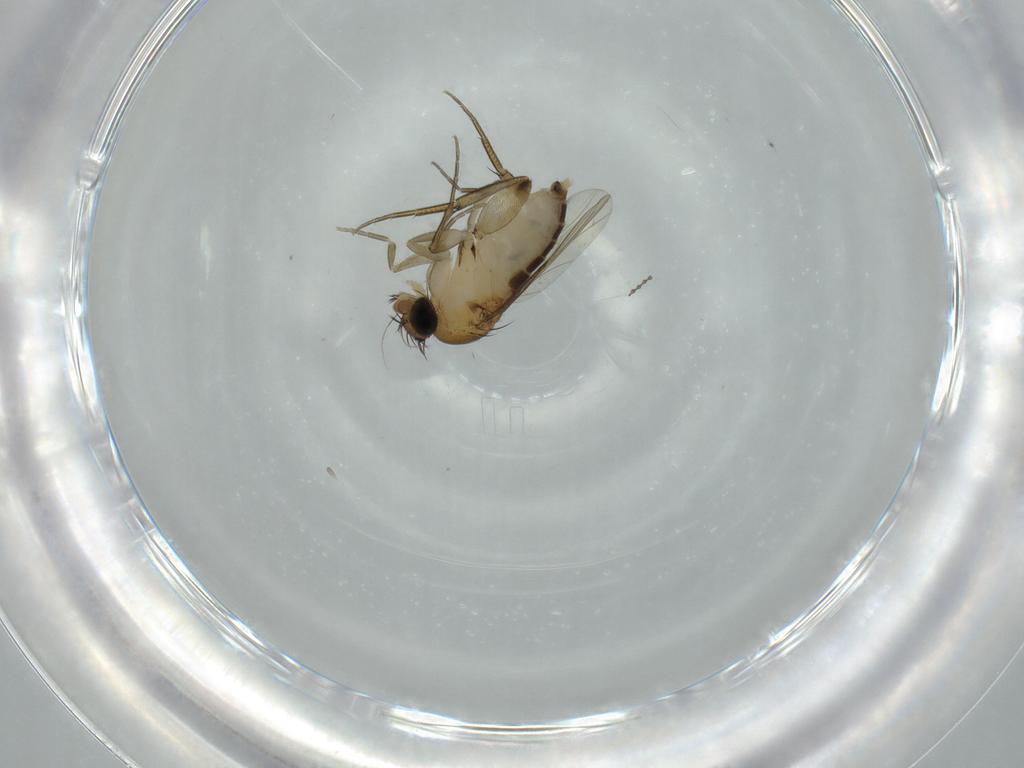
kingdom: Animalia
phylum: Arthropoda
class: Insecta
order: Diptera
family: Phoridae
